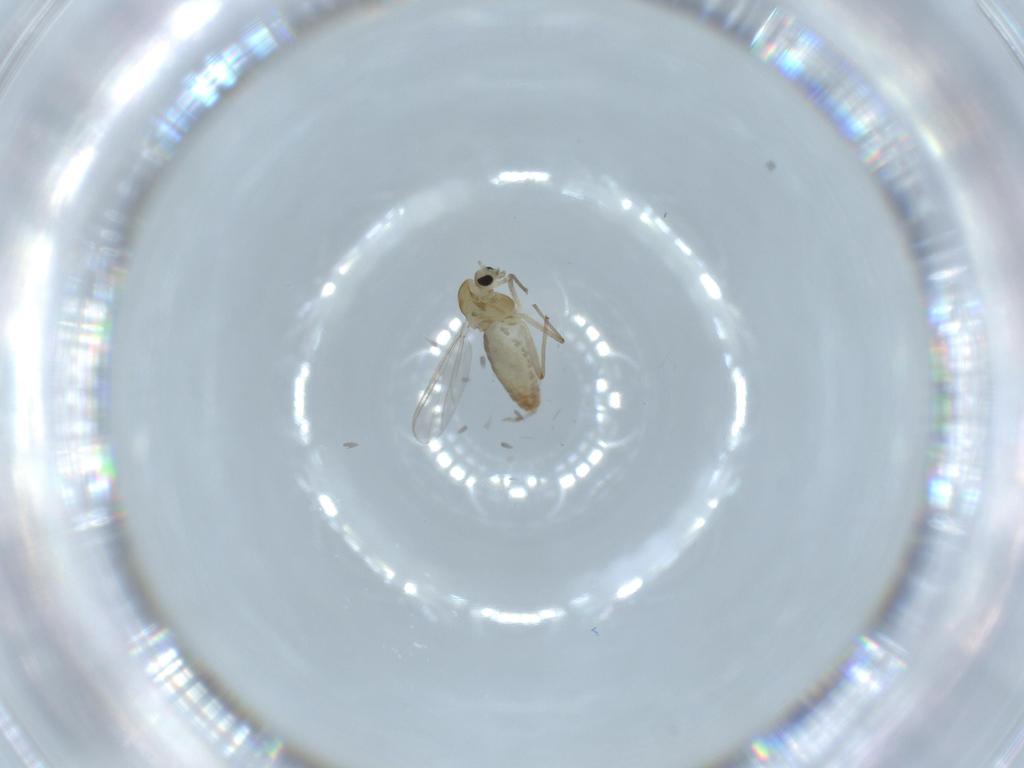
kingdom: Animalia
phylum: Arthropoda
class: Insecta
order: Diptera
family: Chironomidae
